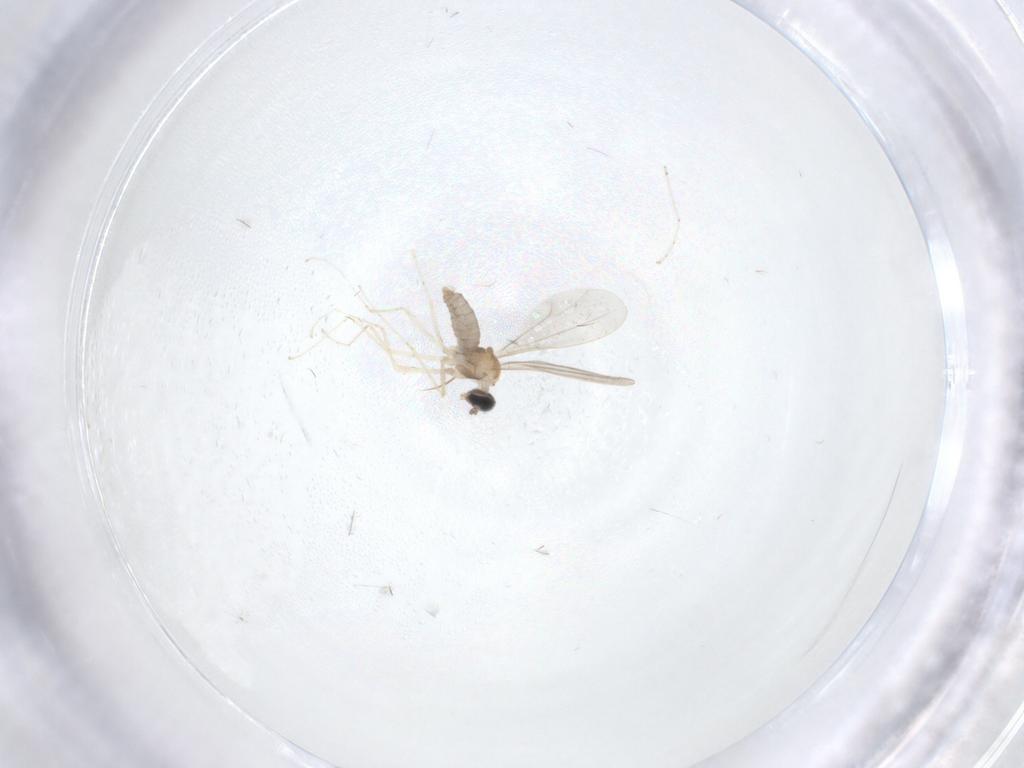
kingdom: Animalia
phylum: Arthropoda
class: Insecta
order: Diptera
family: Cecidomyiidae
